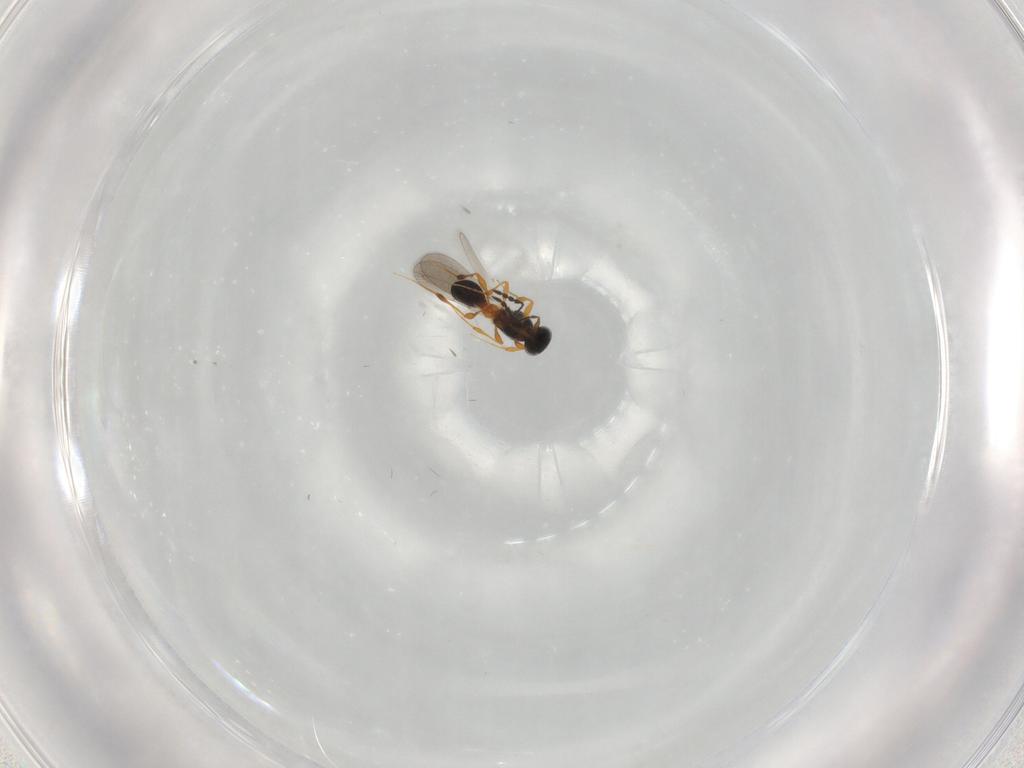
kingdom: Animalia
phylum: Arthropoda
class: Insecta
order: Hymenoptera
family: Platygastridae
